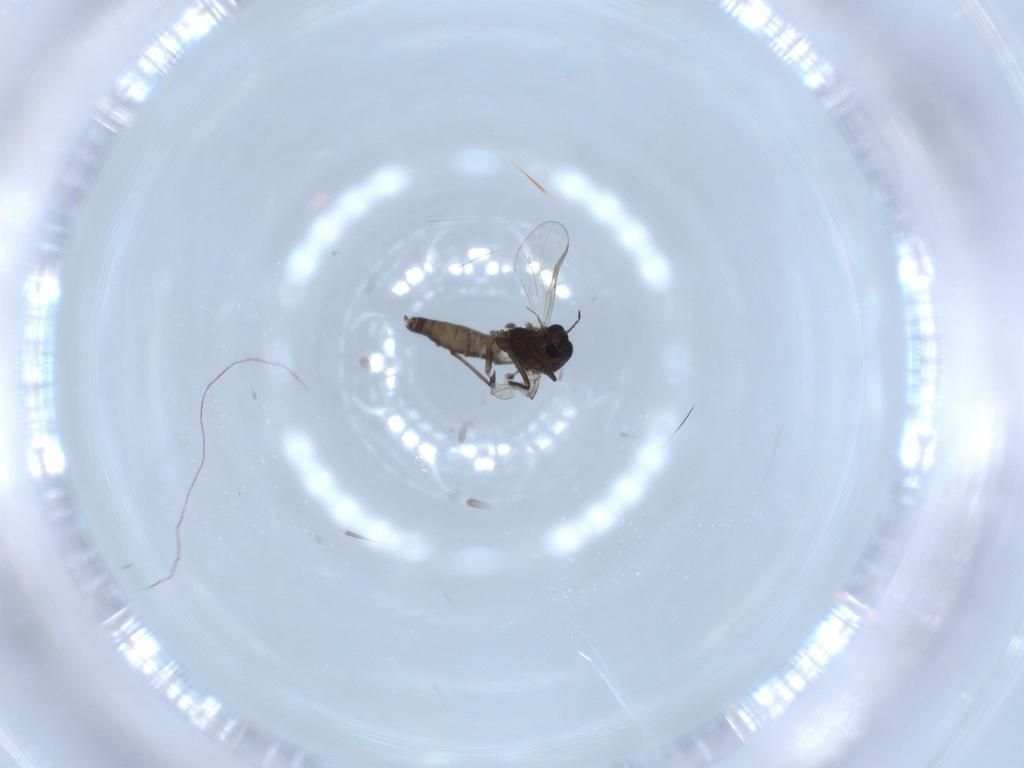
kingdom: Animalia
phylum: Arthropoda
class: Insecta
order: Diptera
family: Chironomidae
